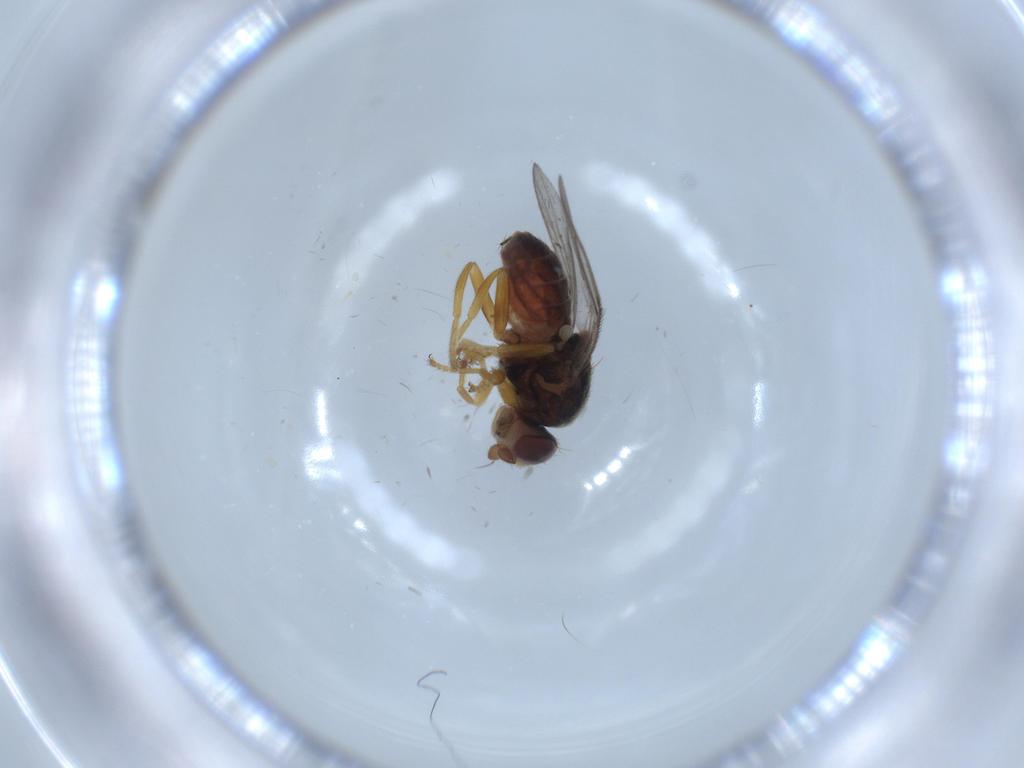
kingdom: Animalia
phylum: Arthropoda
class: Insecta
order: Diptera
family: Chloropidae
